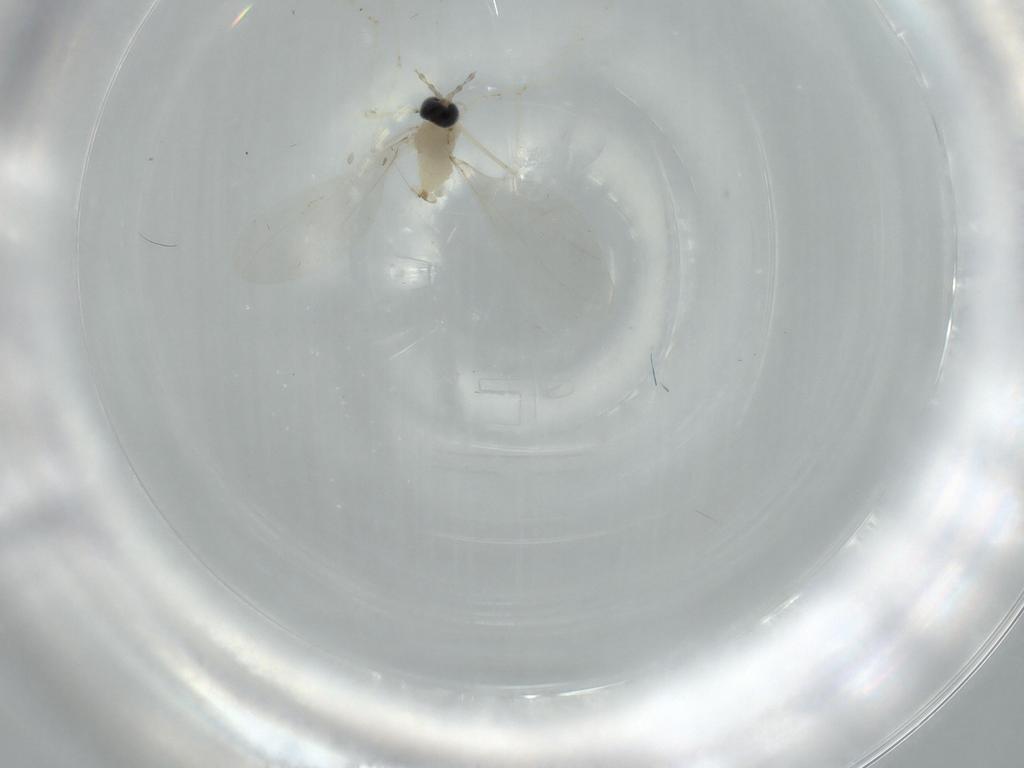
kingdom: Animalia
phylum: Arthropoda
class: Insecta
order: Diptera
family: Cecidomyiidae
